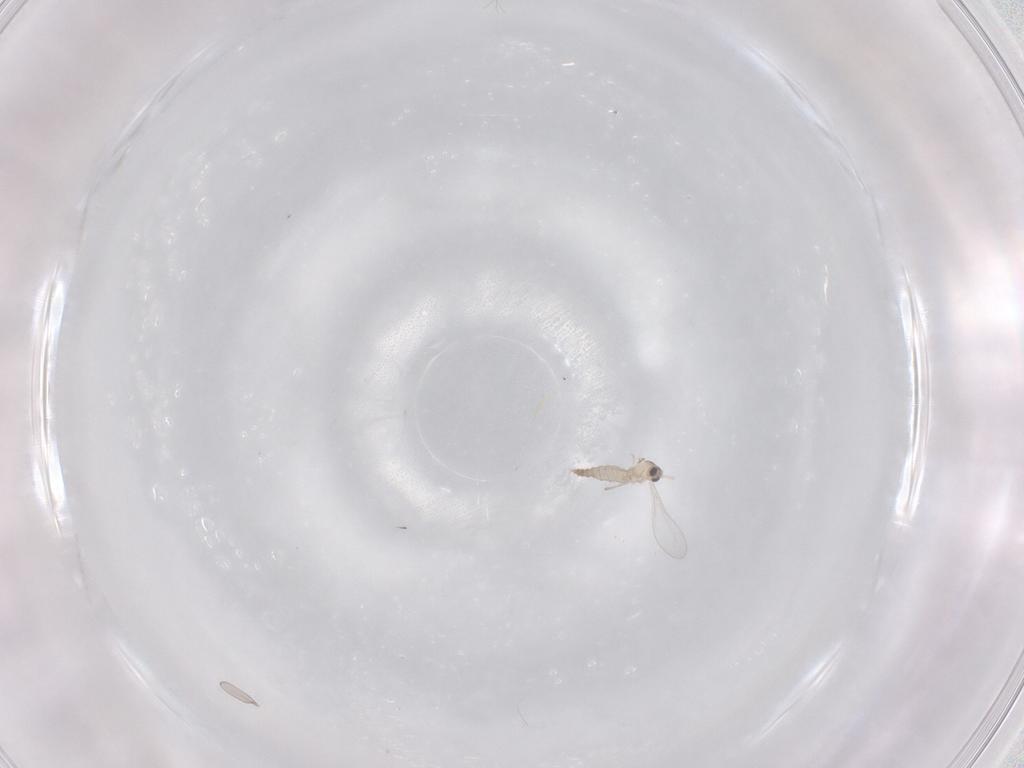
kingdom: Animalia
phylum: Arthropoda
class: Insecta
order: Diptera
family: Cecidomyiidae
